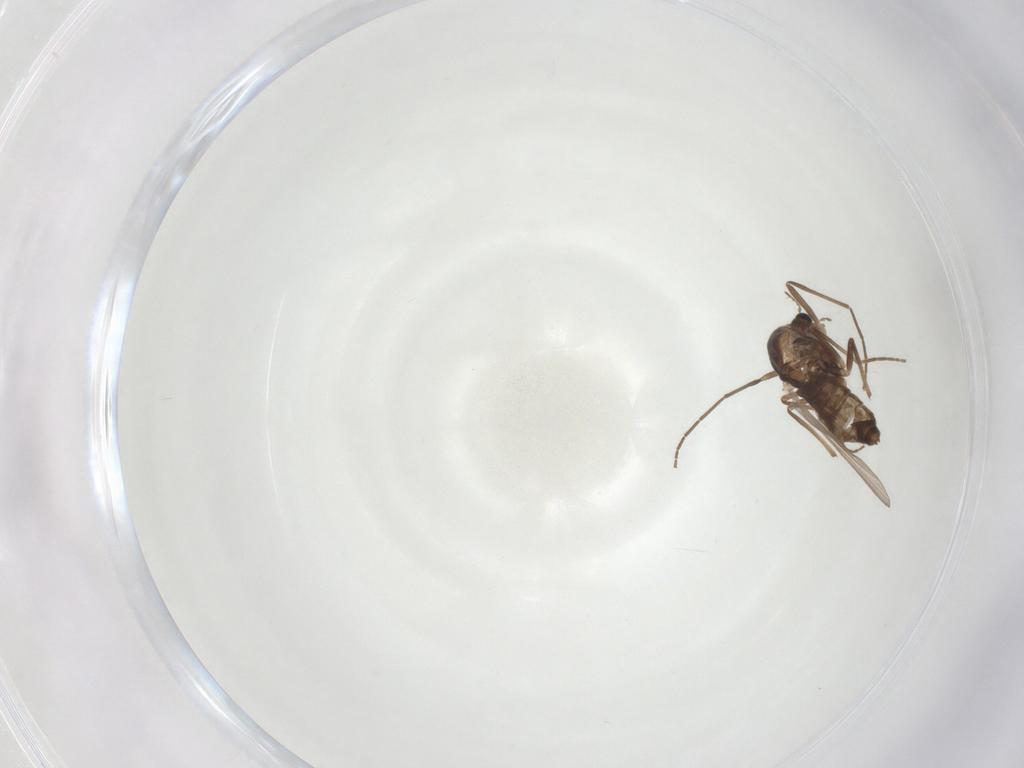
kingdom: Animalia
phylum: Arthropoda
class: Insecta
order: Diptera
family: Chironomidae
